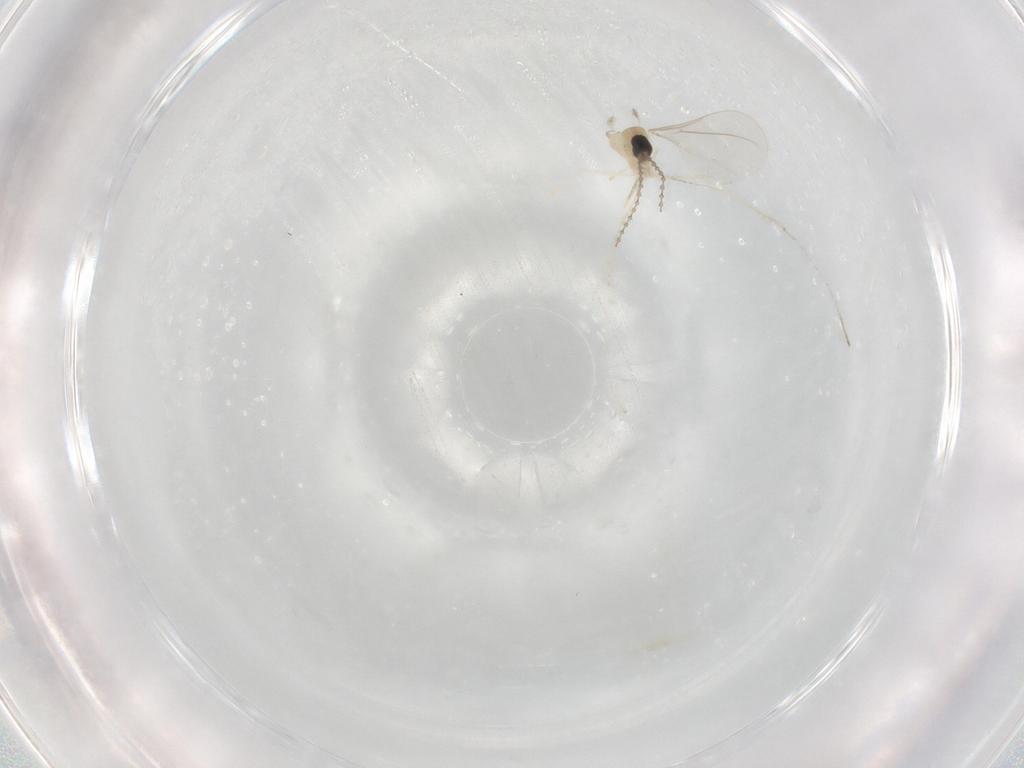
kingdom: Animalia
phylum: Arthropoda
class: Insecta
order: Diptera
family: Cecidomyiidae
